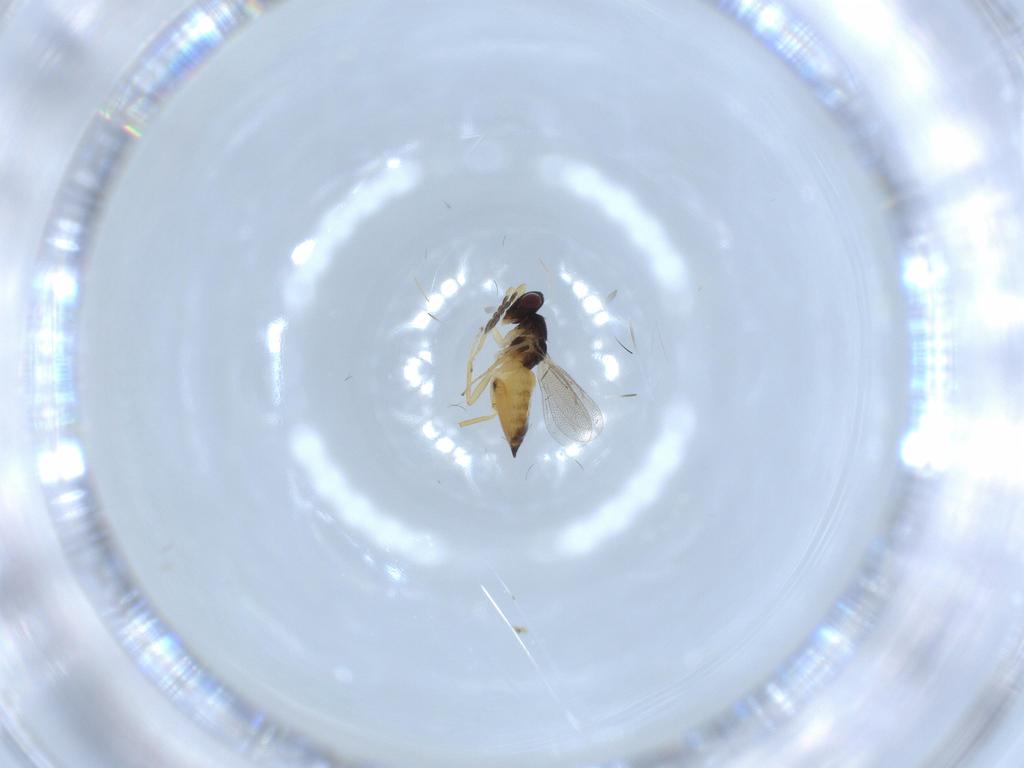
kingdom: Animalia
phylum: Arthropoda
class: Insecta
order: Hymenoptera
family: Eulophidae
